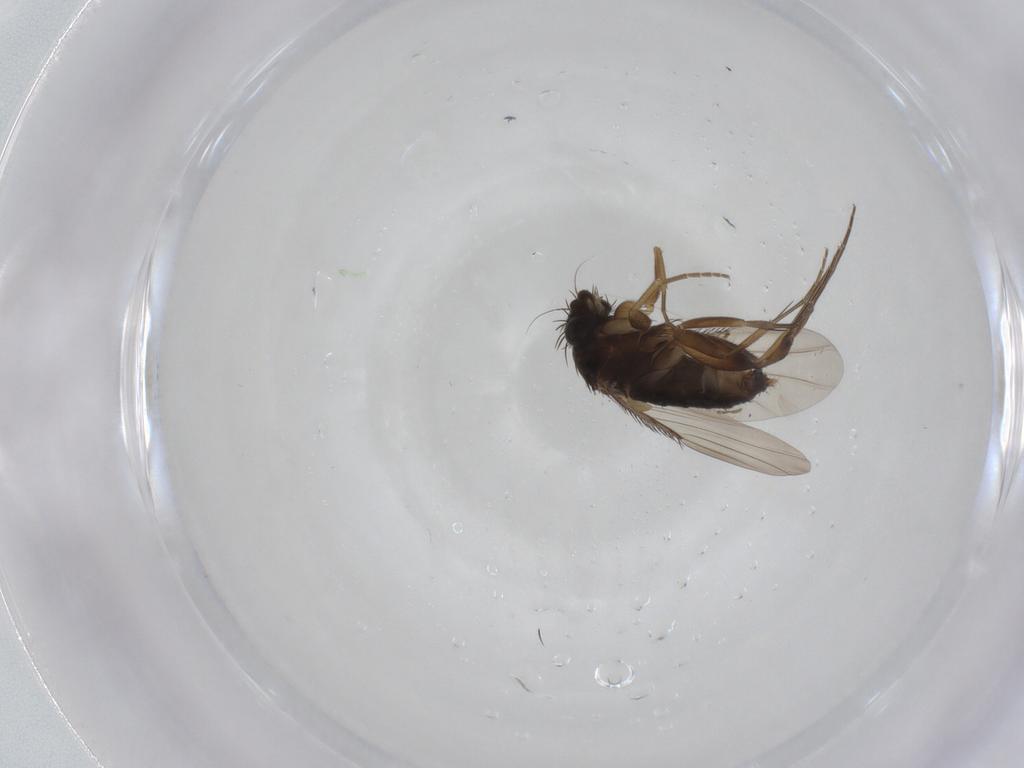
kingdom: Animalia
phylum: Arthropoda
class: Insecta
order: Diptera
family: Phoridae
